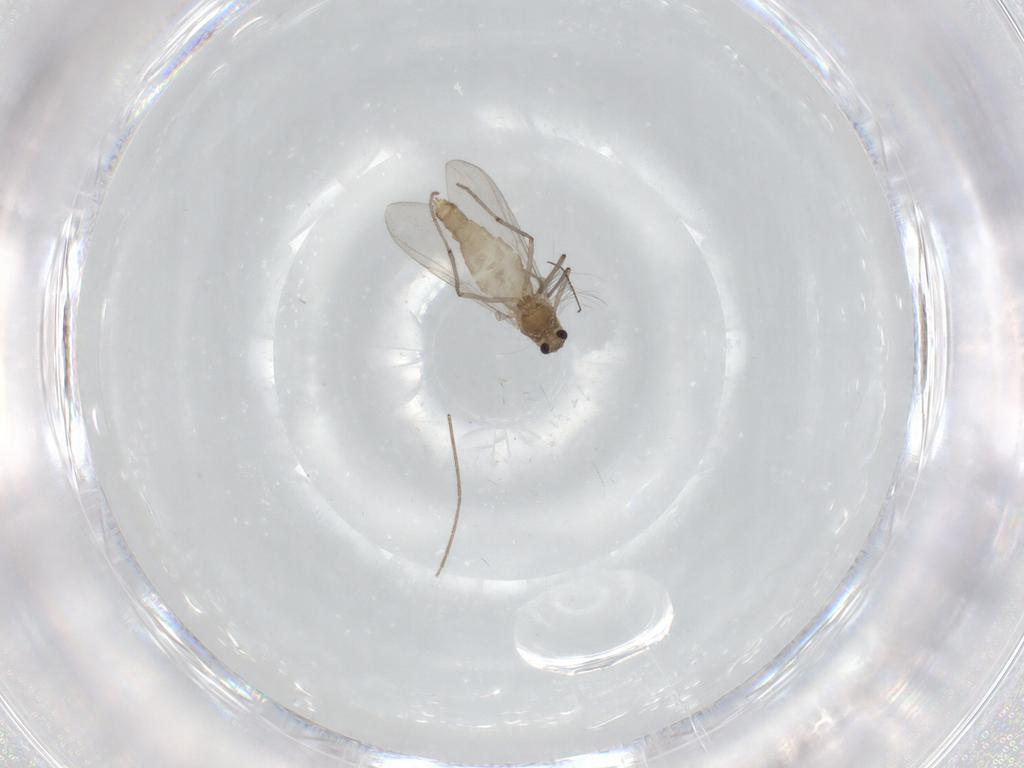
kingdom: Animalia
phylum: Arthropoda
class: Insecta
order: Diptera
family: Chironomidae
